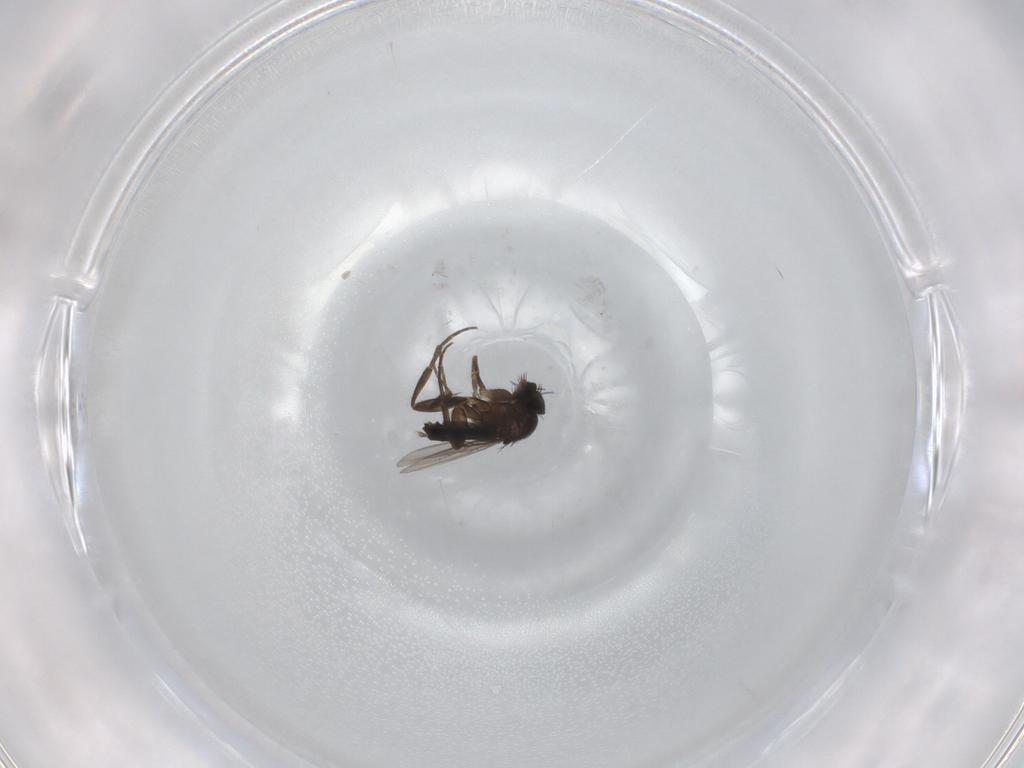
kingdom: Animalia
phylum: Arthropoda
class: Insecta
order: Diptera
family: Phoridae
